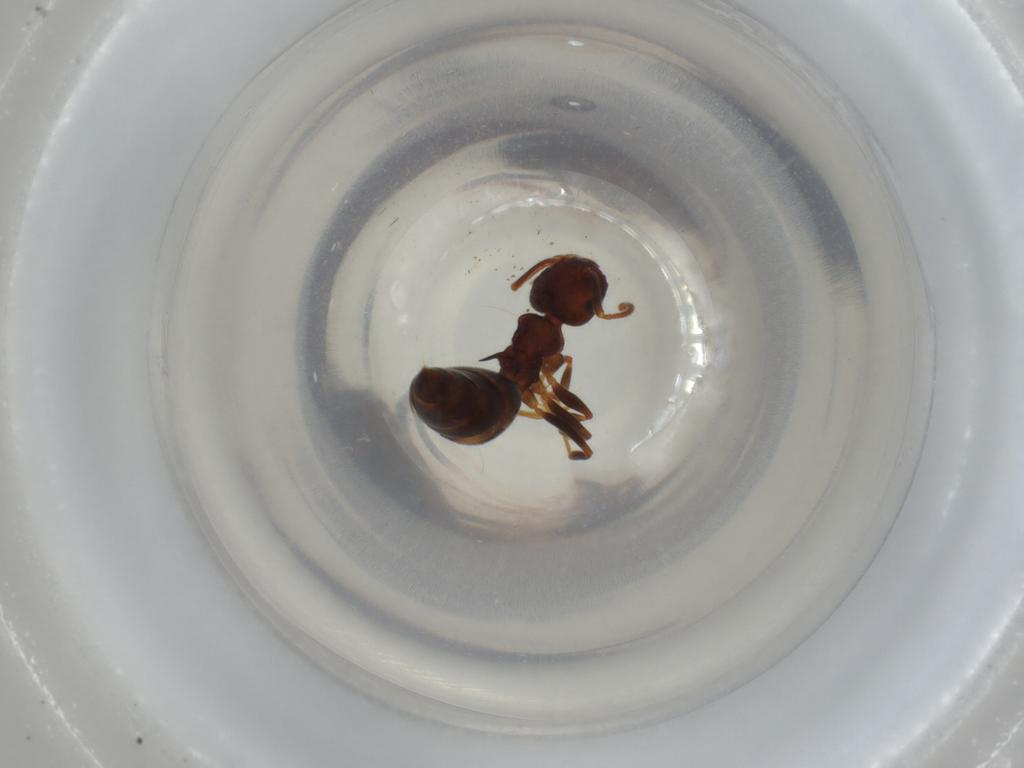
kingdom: Animalia
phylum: Arthropoda
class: Insecta
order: Hymenoptera
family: Formicidae
